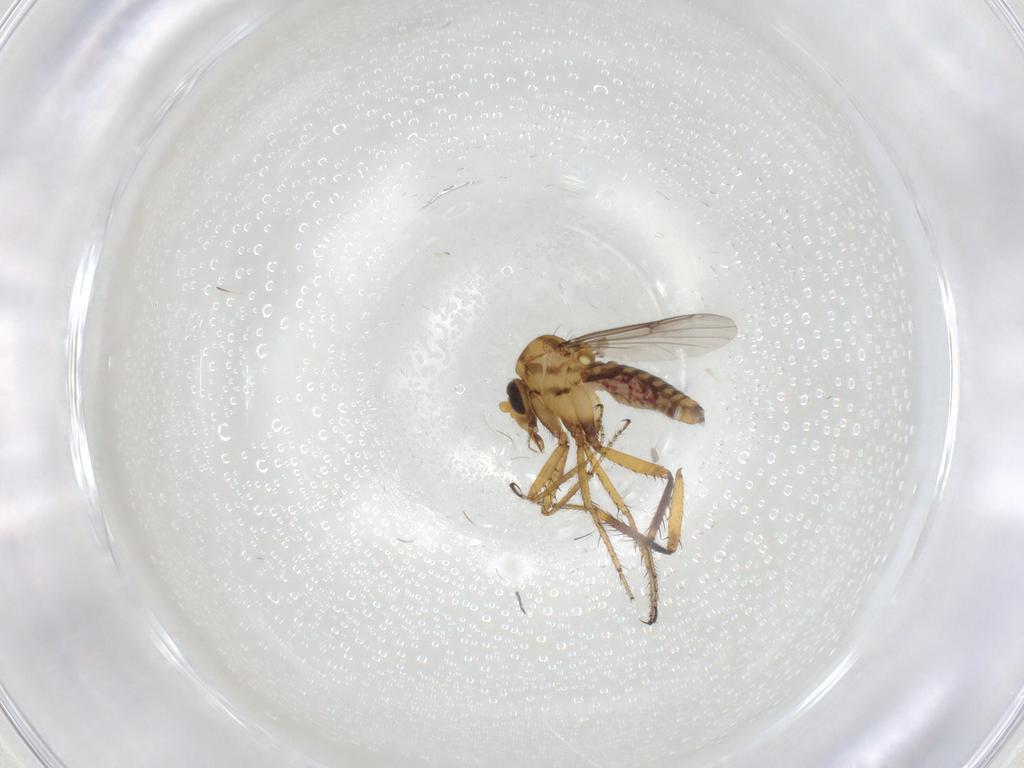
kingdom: Animalia
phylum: Arthropoda
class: Insecta
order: Diptera
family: Ceratopogonidae
